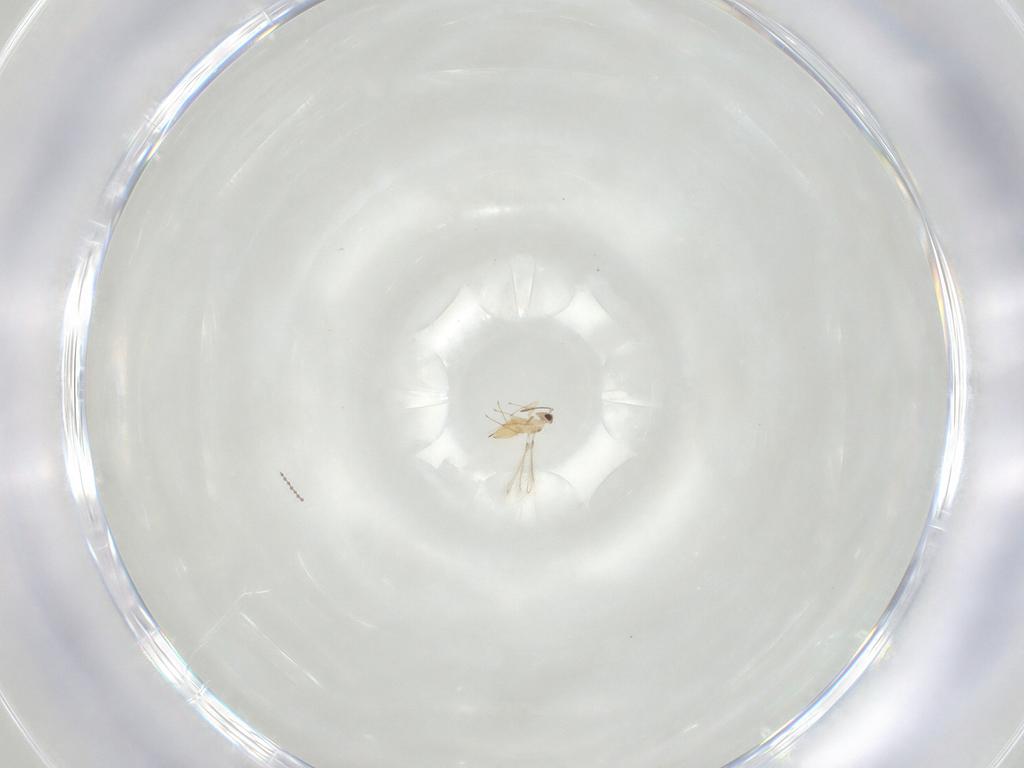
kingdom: Animalia
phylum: Arthropoda
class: Insecta
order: Hymenoptera
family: Mymaridae
